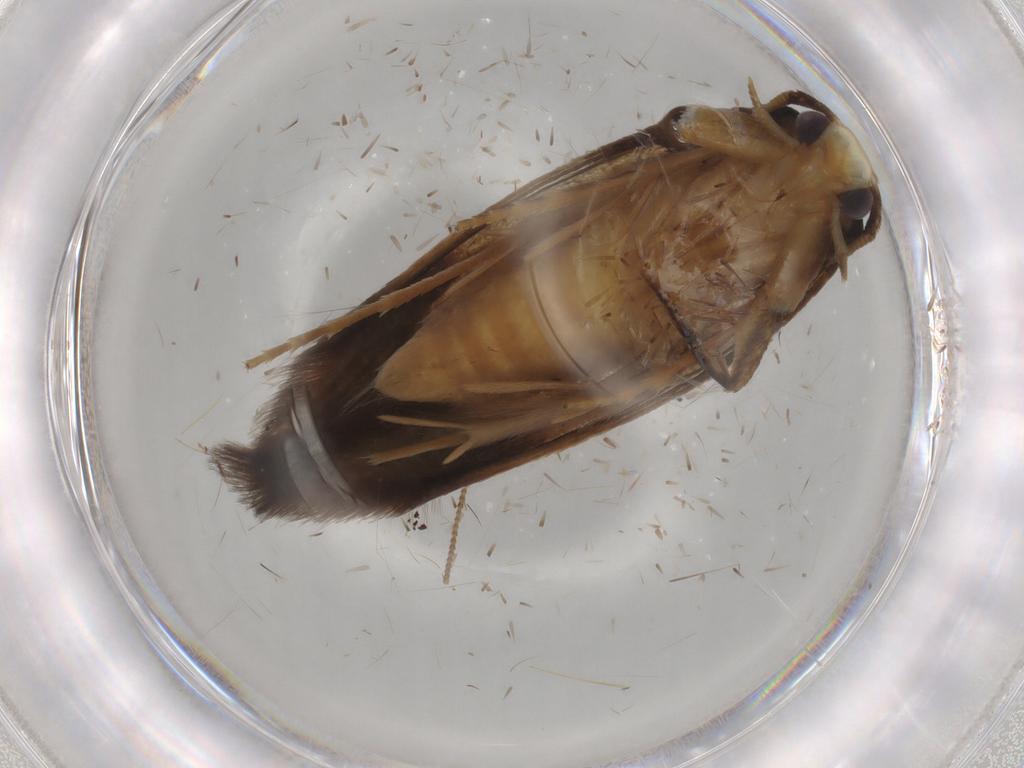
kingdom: Animalia
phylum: Arthropoda
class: Insecta
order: Lepidoptera
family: Tineidae
